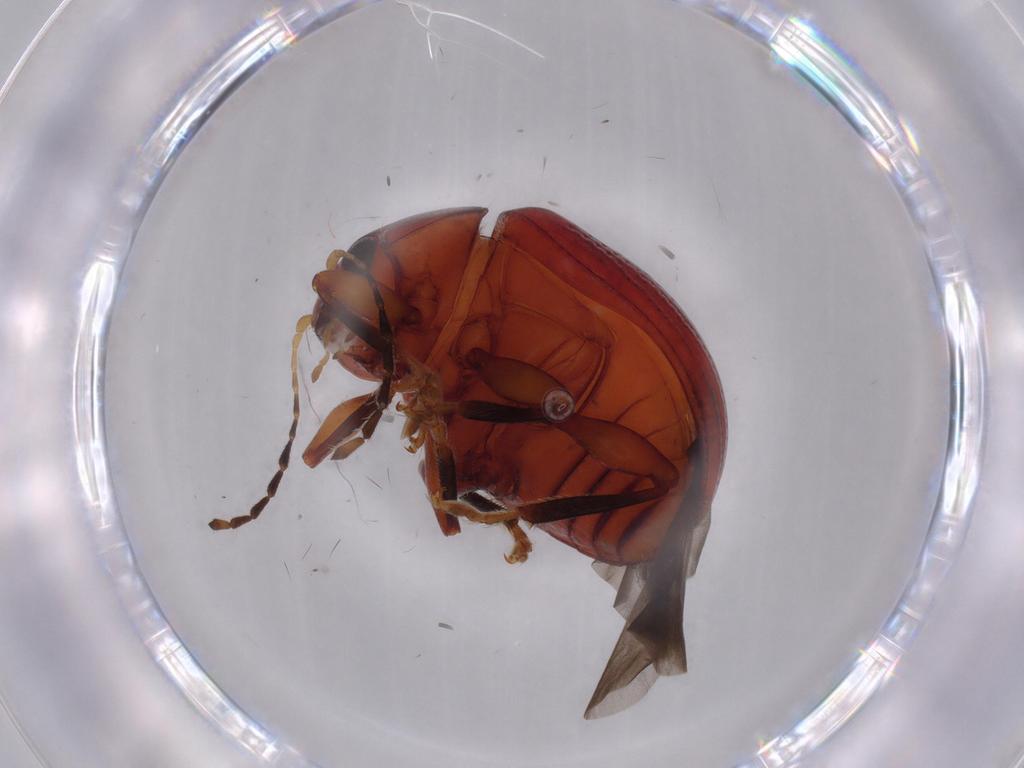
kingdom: Animalia
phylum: Arthropoda
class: Insecta
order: Coleoptera
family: Chrysomelidae
